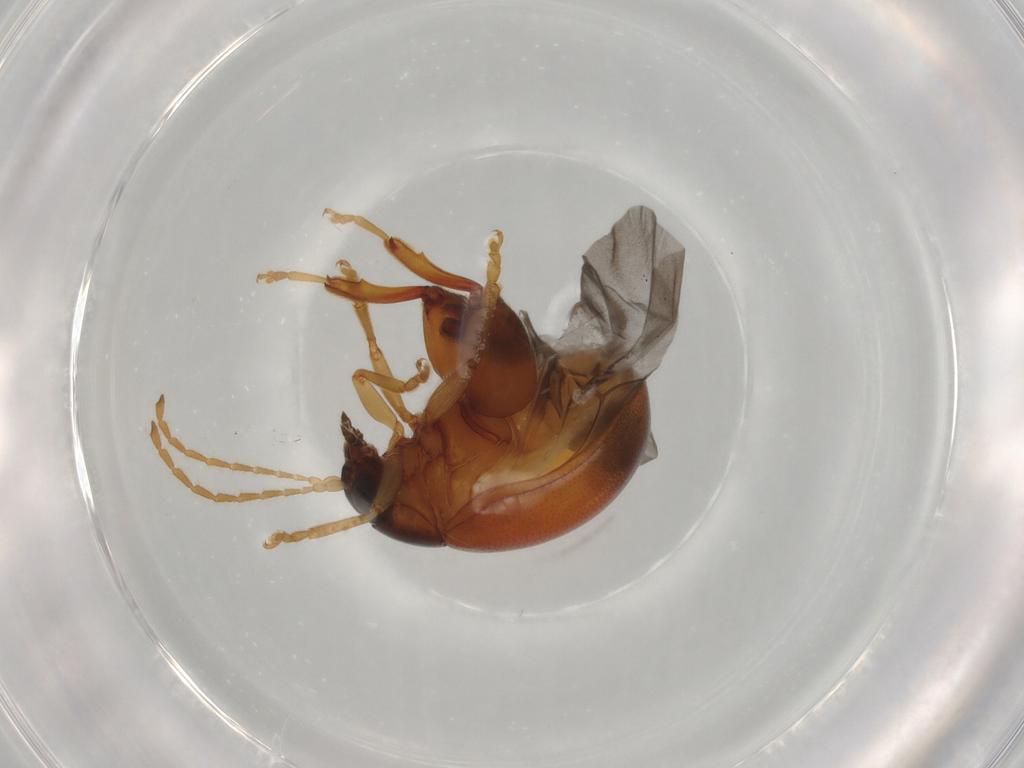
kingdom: Animalia
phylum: Arthropoda
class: Insecta
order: Coleoptera
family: Chrysomelidae
